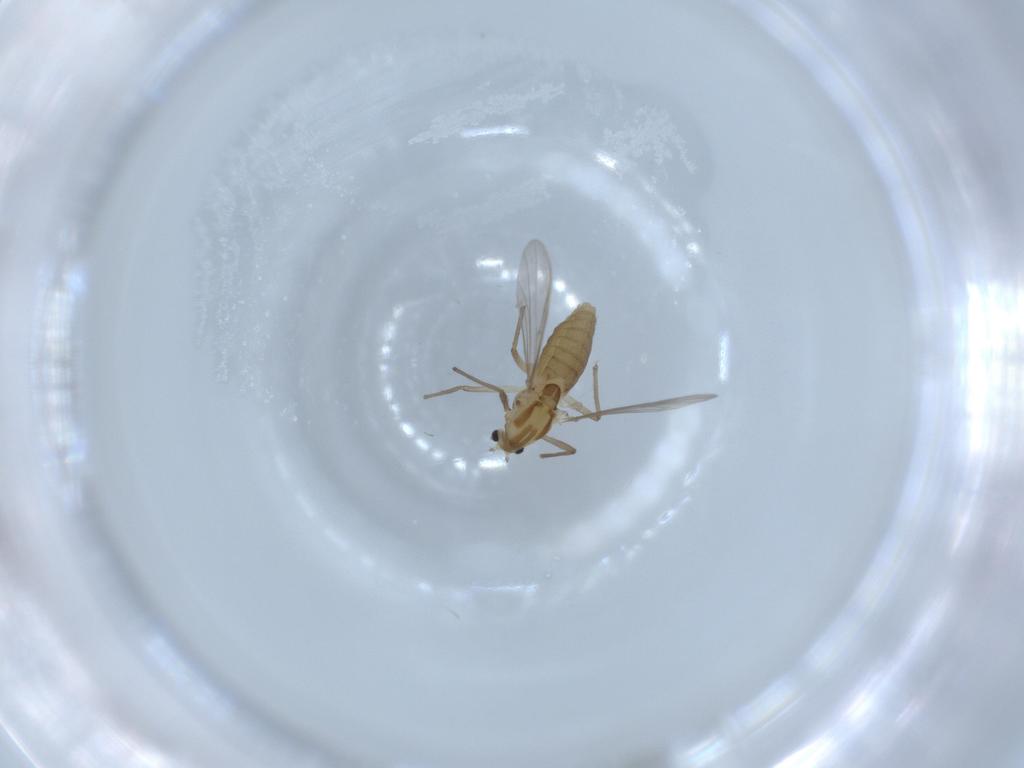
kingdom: Animalia
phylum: Arthropoda
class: Insecta
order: Diptera
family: Chironomidae
